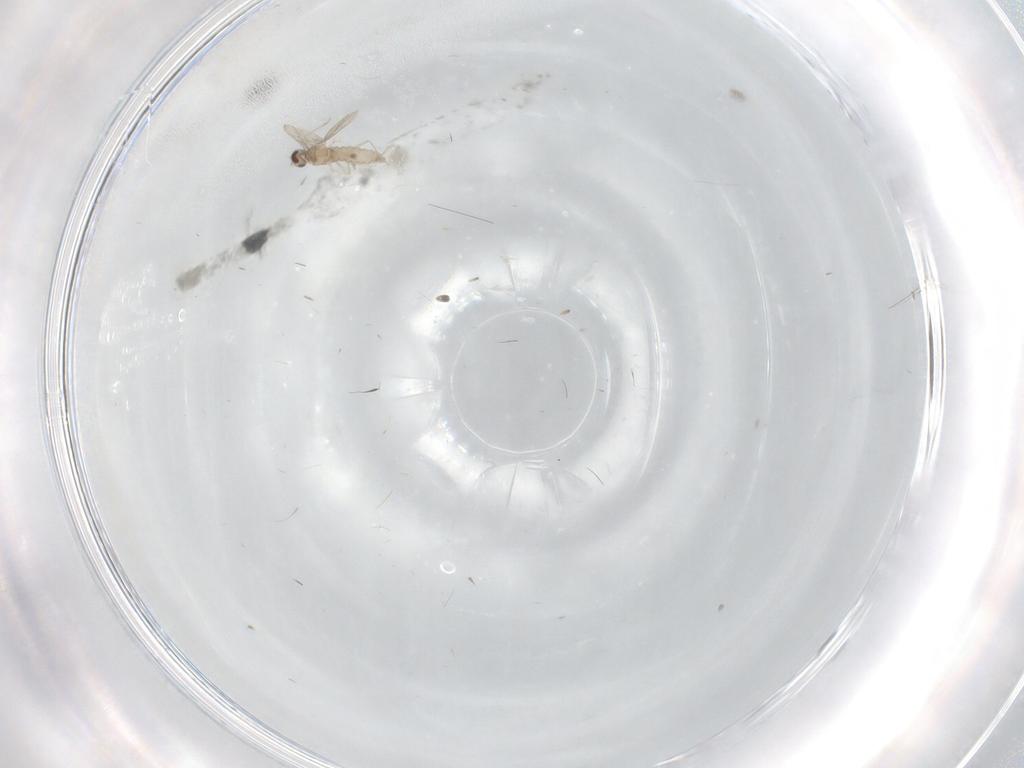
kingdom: Animalia
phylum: Arthropoda
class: Insecta
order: Diptera
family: Cecidomyiidae
